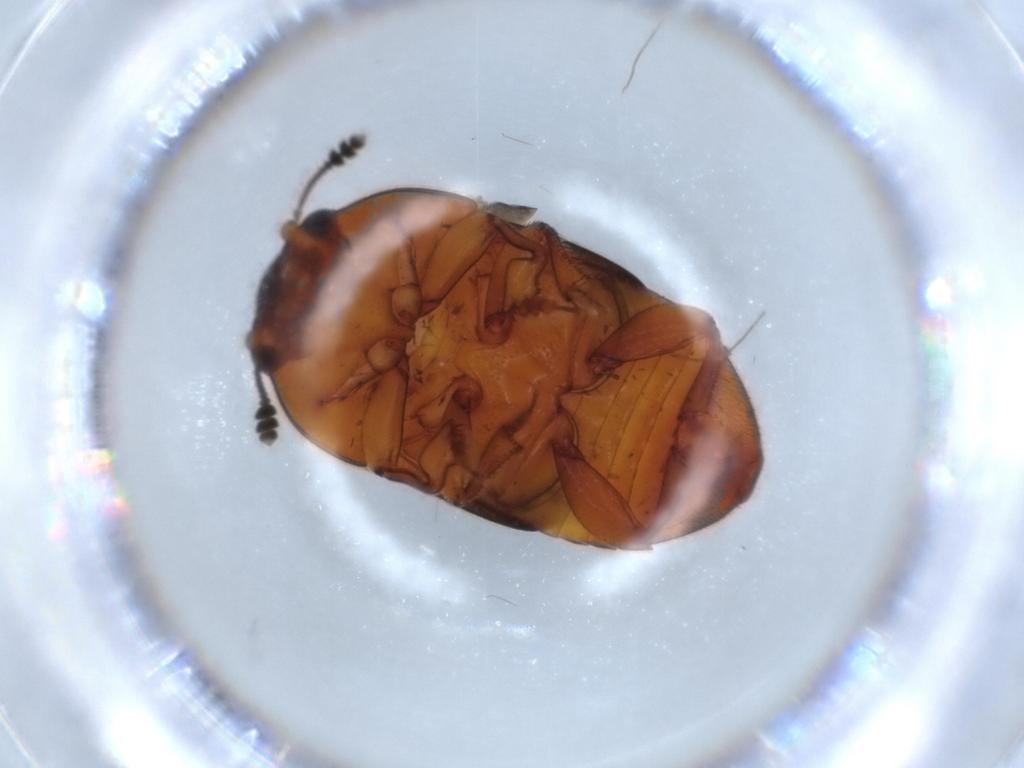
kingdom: Animalia
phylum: Arthropoda
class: Insecta
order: Coleoptera
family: Nitidulidae
